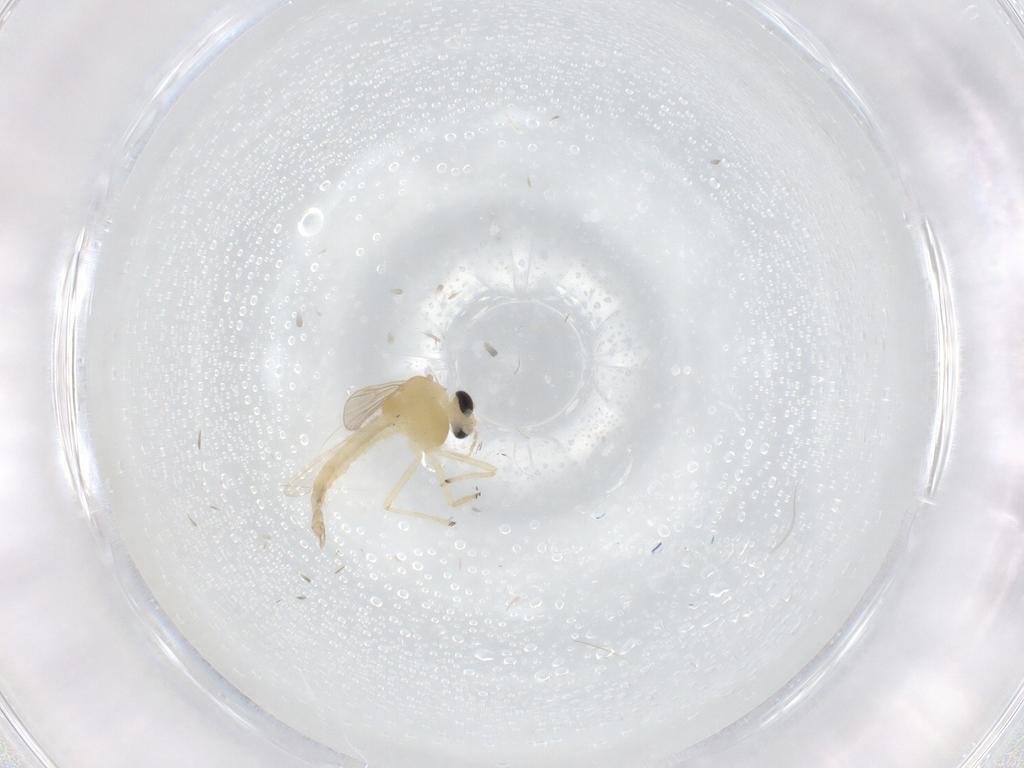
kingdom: Animalia
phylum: Arthropoda
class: Insecta
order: Diptera
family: Chironomidae
